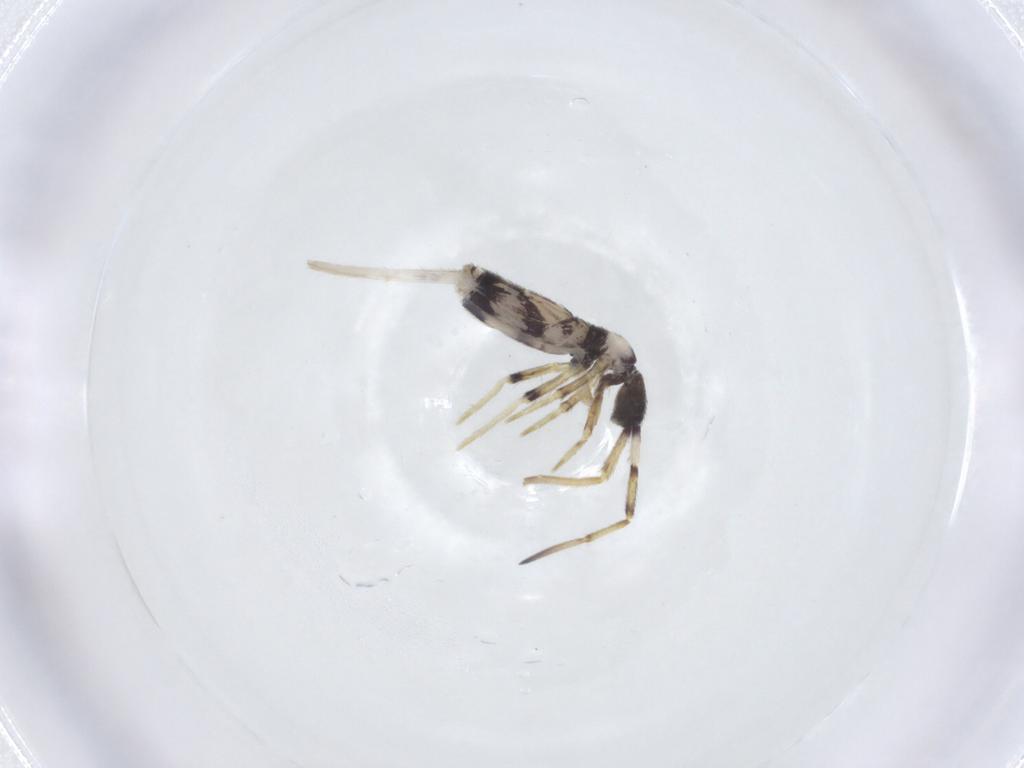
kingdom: Animalia
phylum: Arthropoda
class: Collembola
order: Entomobryomorpha
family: Entomobryidae
